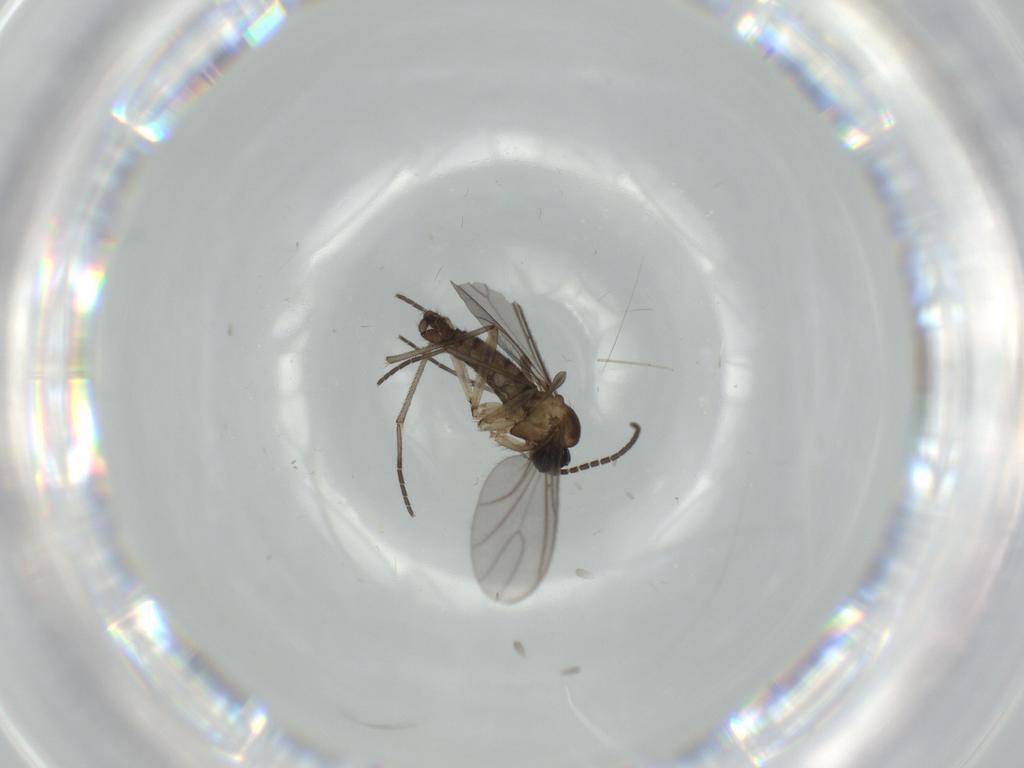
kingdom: Animalia
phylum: Arthropoda
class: Insecta
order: Diptera
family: Sciaridae
